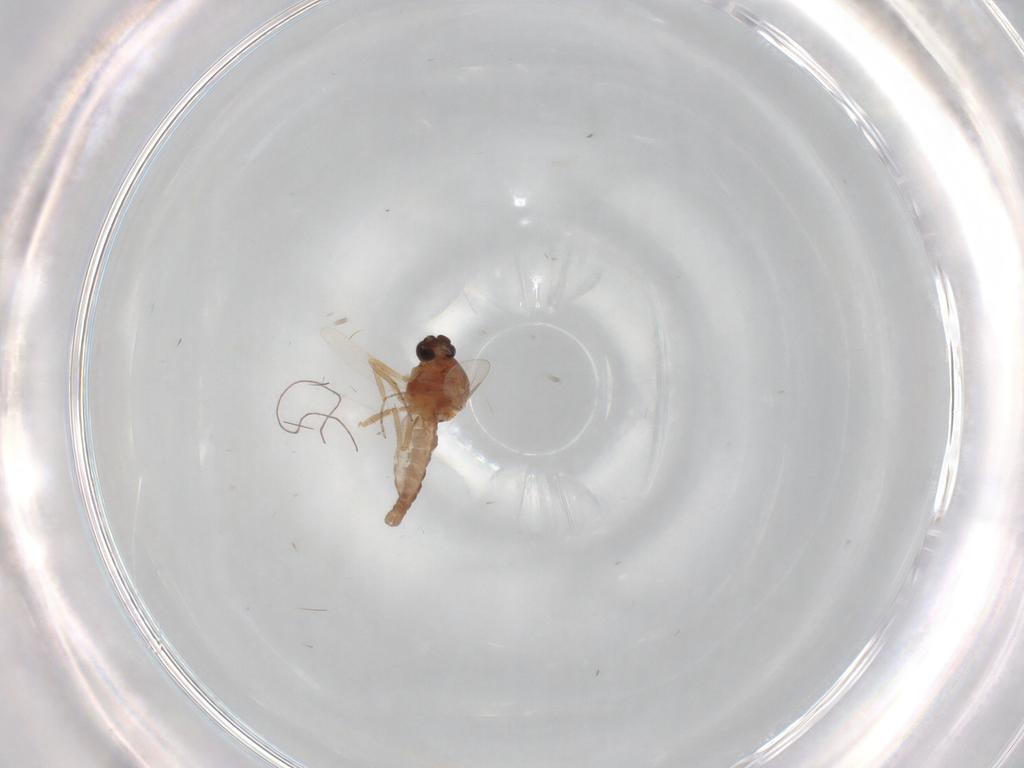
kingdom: Animalia
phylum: Arthropoda
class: Insecta
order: Diptera
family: Ceratopogonidae
